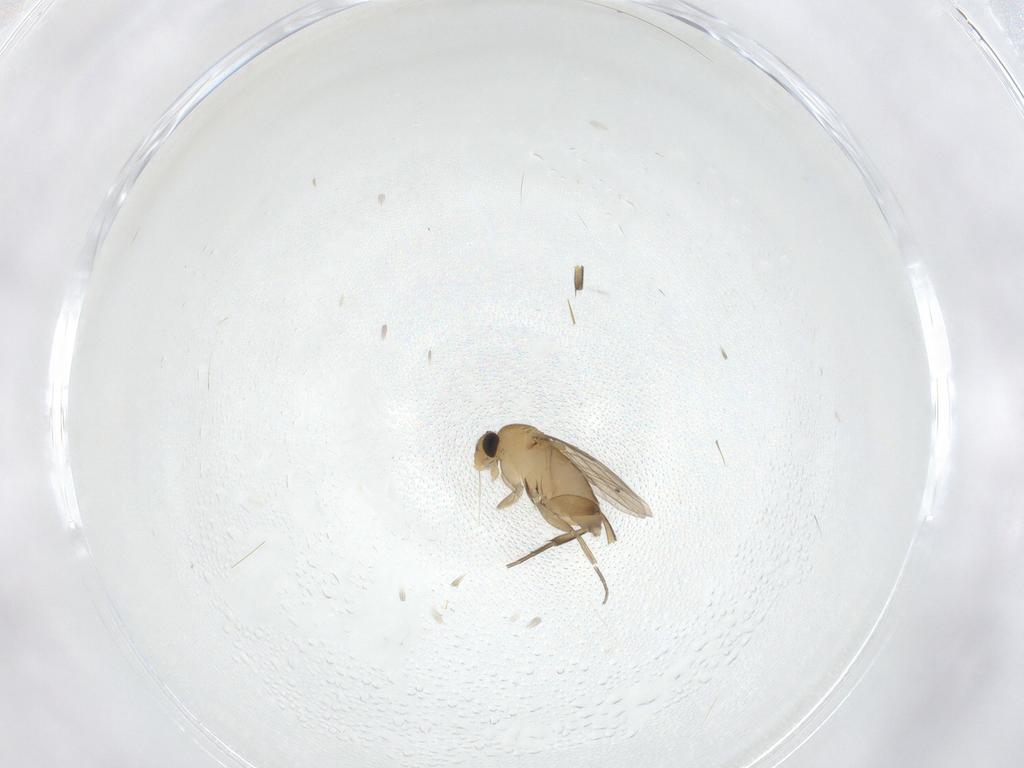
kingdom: Animalia
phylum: Arthropoda
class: Insecta
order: Diptera
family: Phoridae
